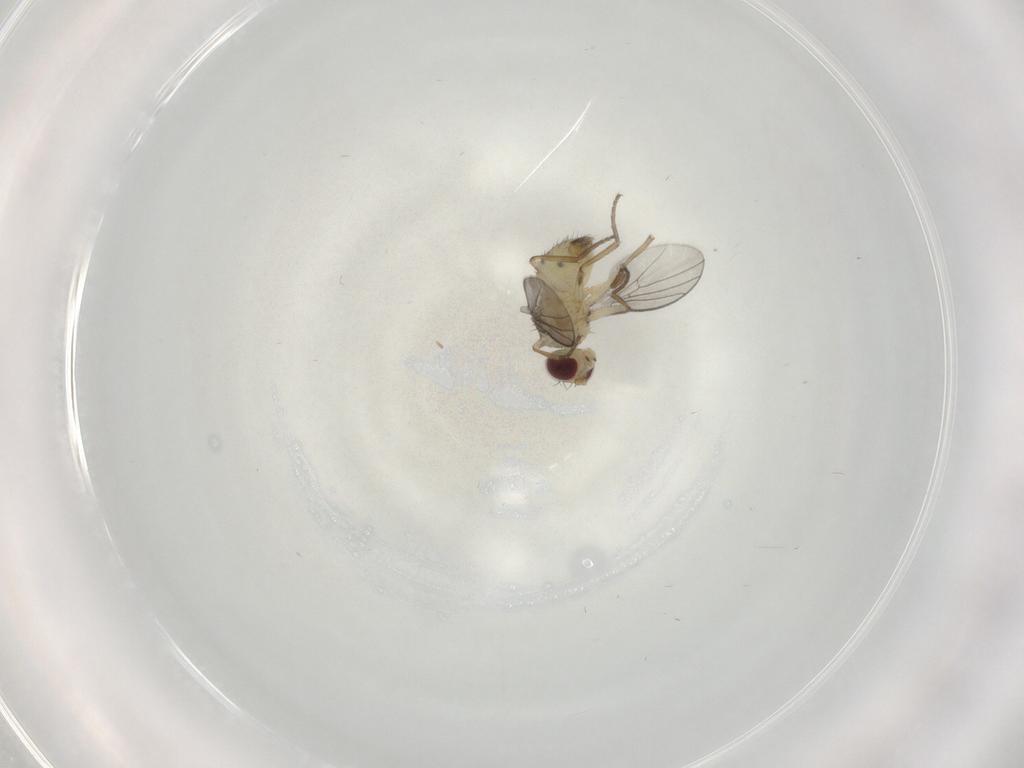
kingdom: Animalia
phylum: Arthropoda
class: Insecta
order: Diptera
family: Agromyzidae
